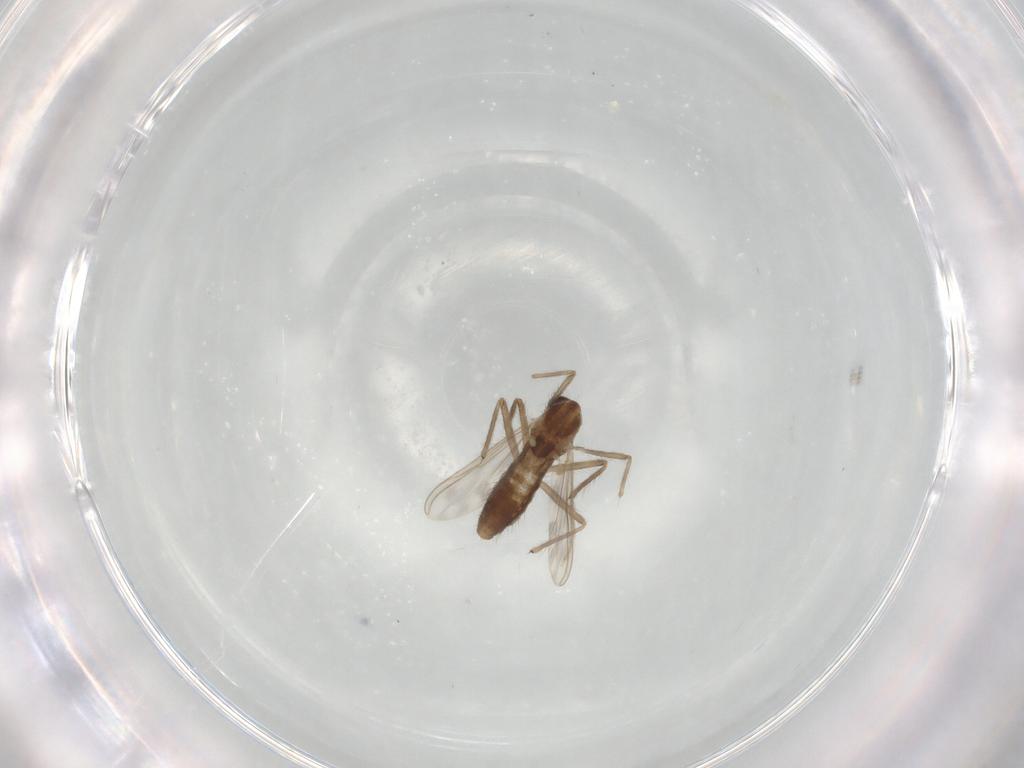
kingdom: Animalia
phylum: Arthropoda
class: Insecta
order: Diptera
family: Chironomidae
